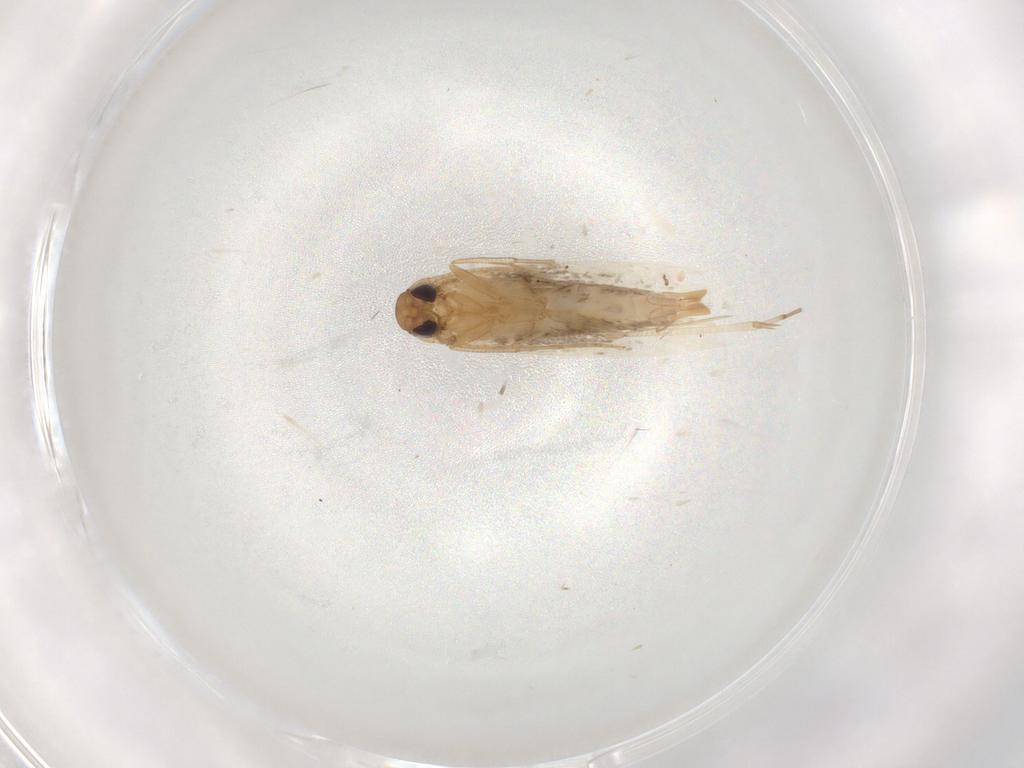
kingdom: Animalia
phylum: Arthropoda
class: Insecta
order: Lepidoptera
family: Crambidae
